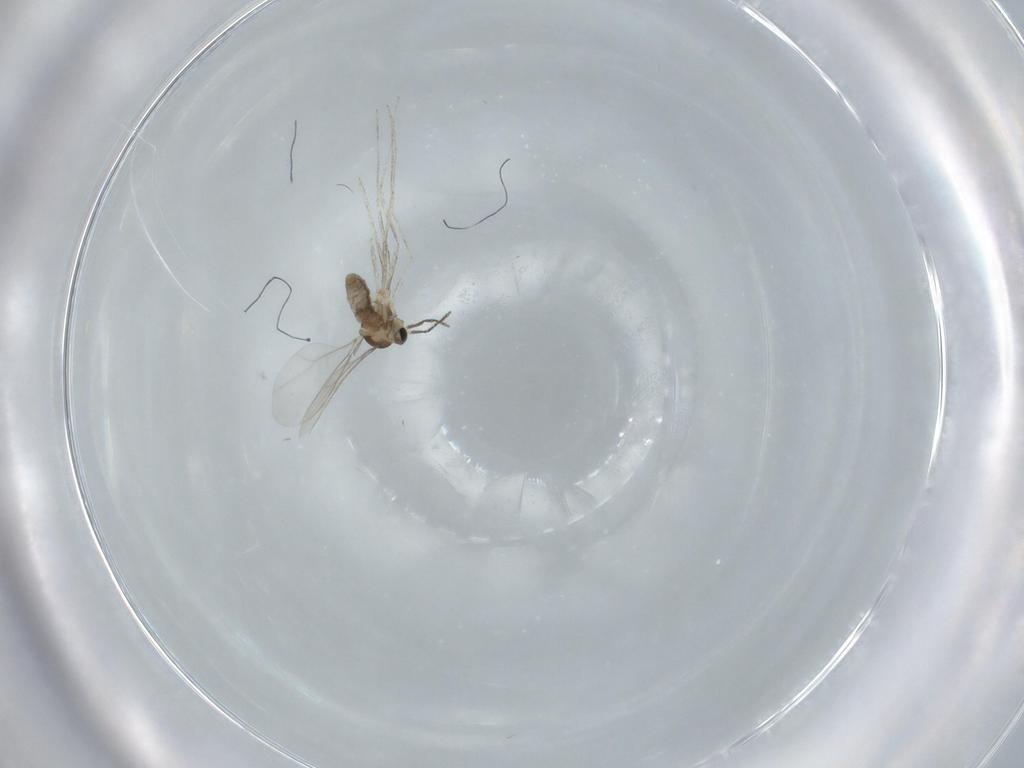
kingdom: Animalia
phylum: Arthropoda
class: Insecta
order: Diptera
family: Cecidomyiidae
